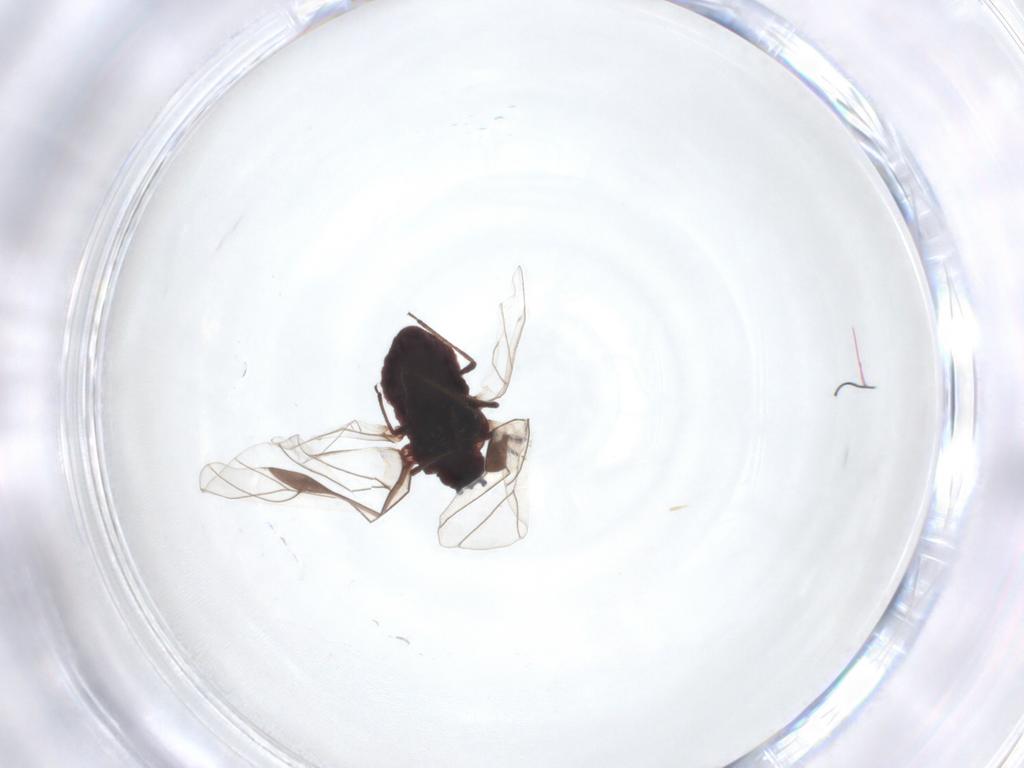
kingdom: Animalia
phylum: Arthropoda
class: Insecta
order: Hemiptera
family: Aphididae
